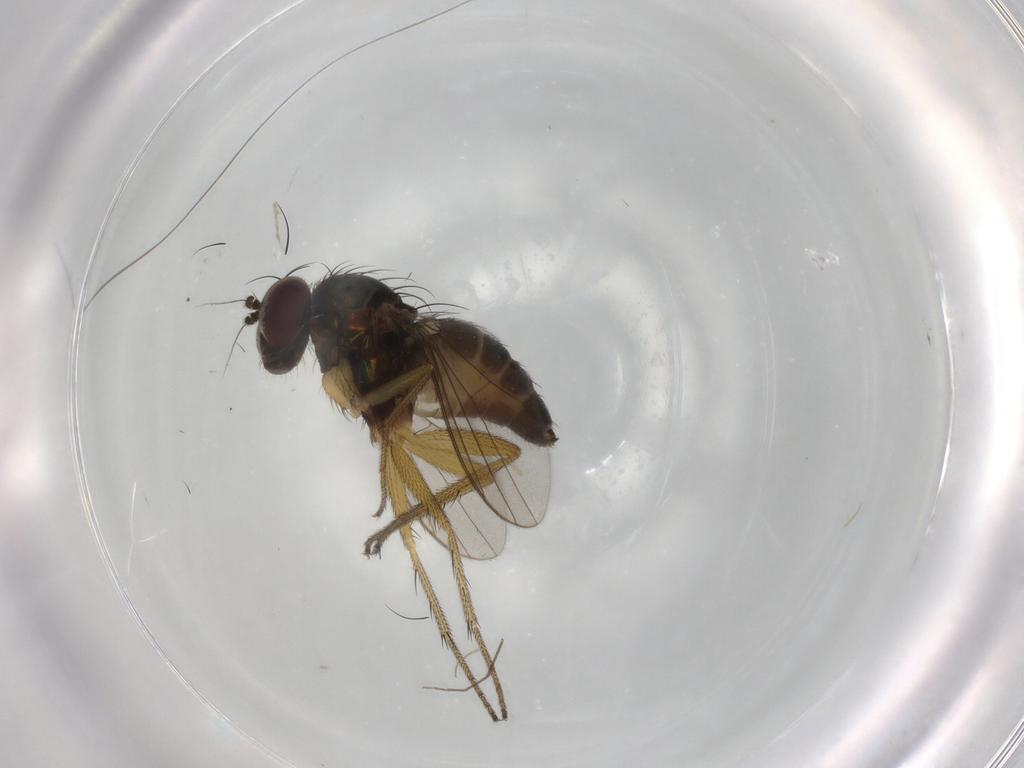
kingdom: Animalia
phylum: Arthropoda
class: Insecta
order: Diptera
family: Dolichopodidae
